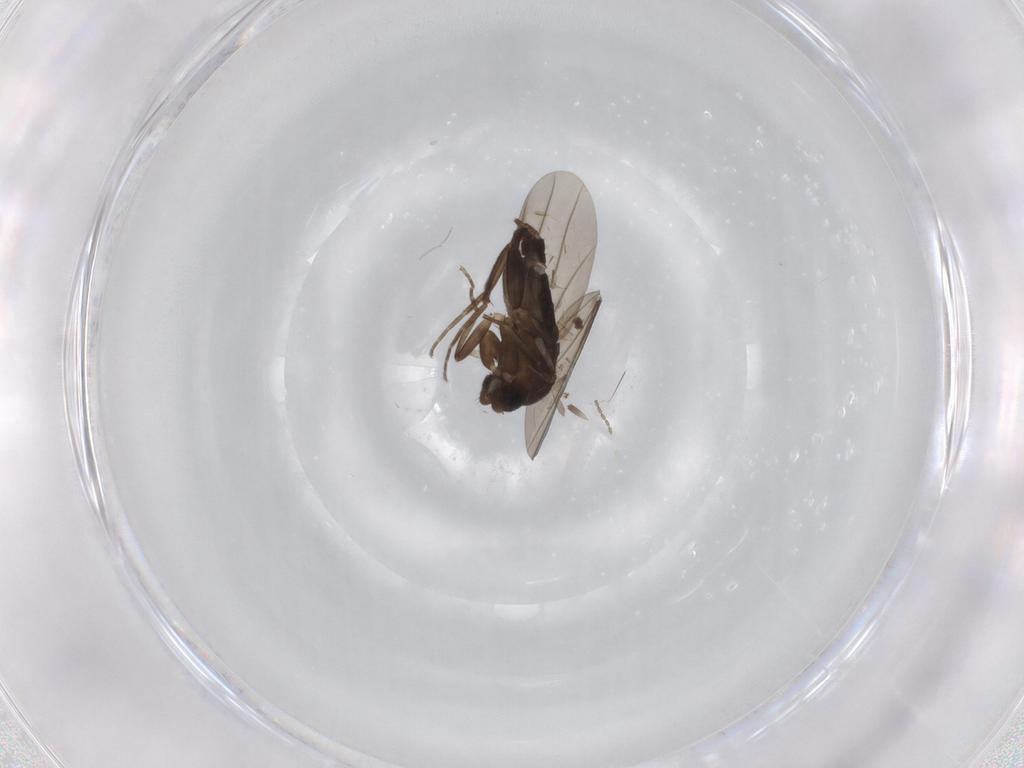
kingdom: Animalia
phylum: Arthropoda
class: Insecta
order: Diptera
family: Phoridae
